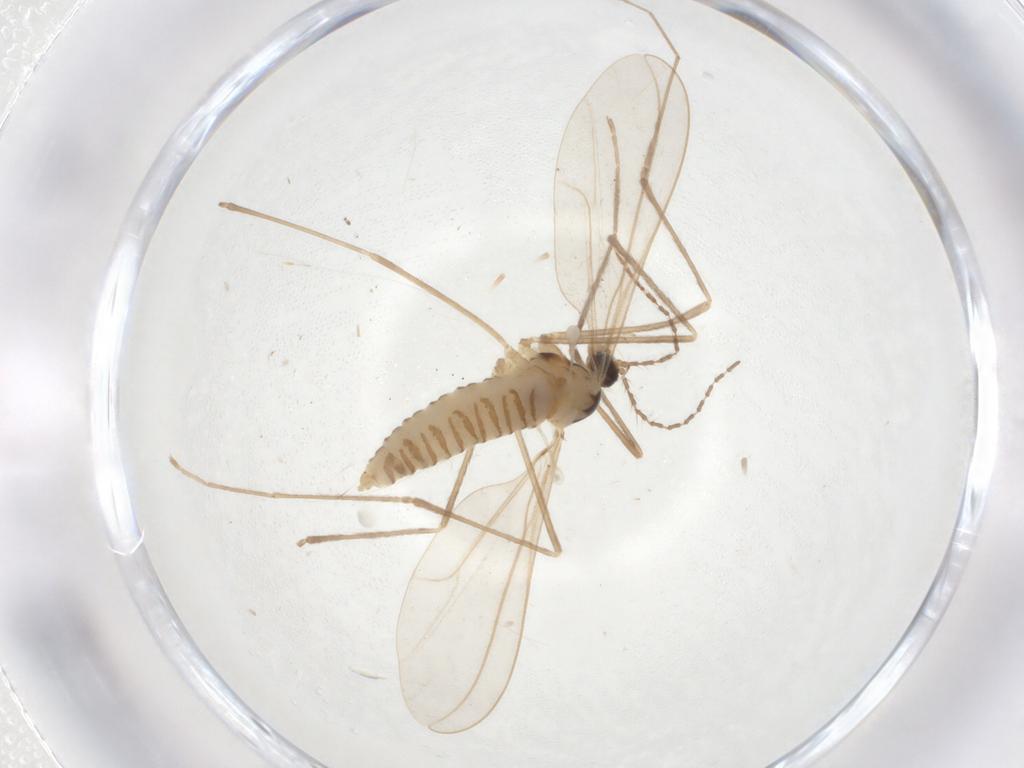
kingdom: Animalia
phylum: Arthropoda
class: Insecta
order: Diptera
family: Cecidomyiidae
